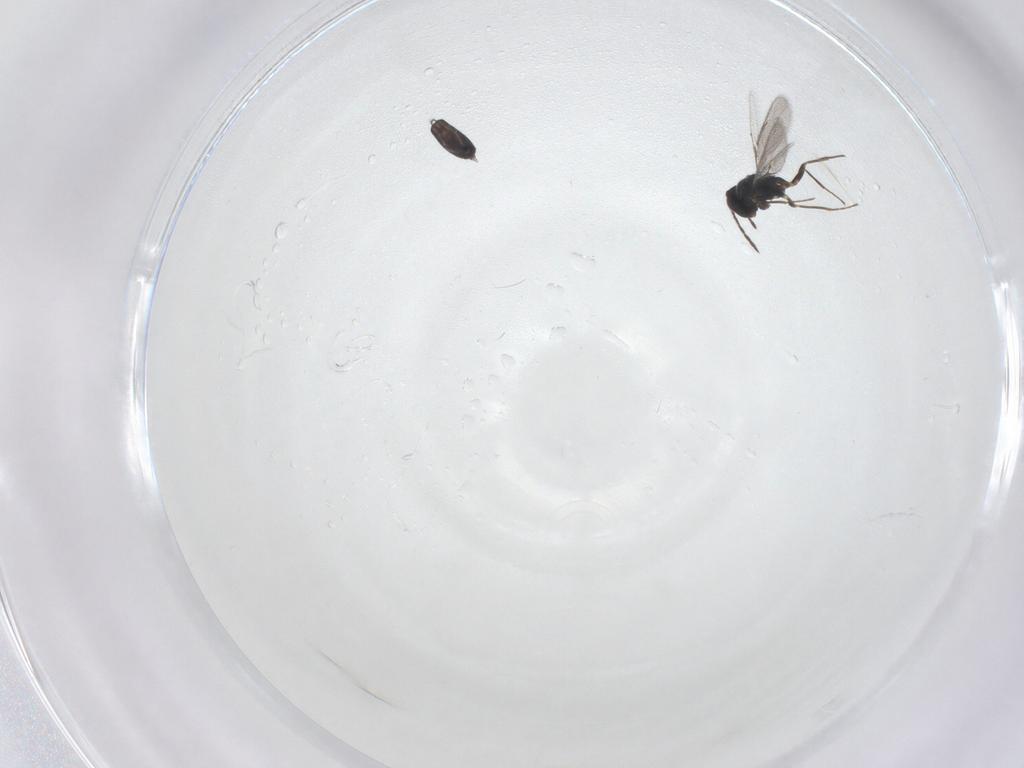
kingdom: Animalia
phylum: Arthropoda
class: Insecta
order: Hymenoptera
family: Eulophidae
